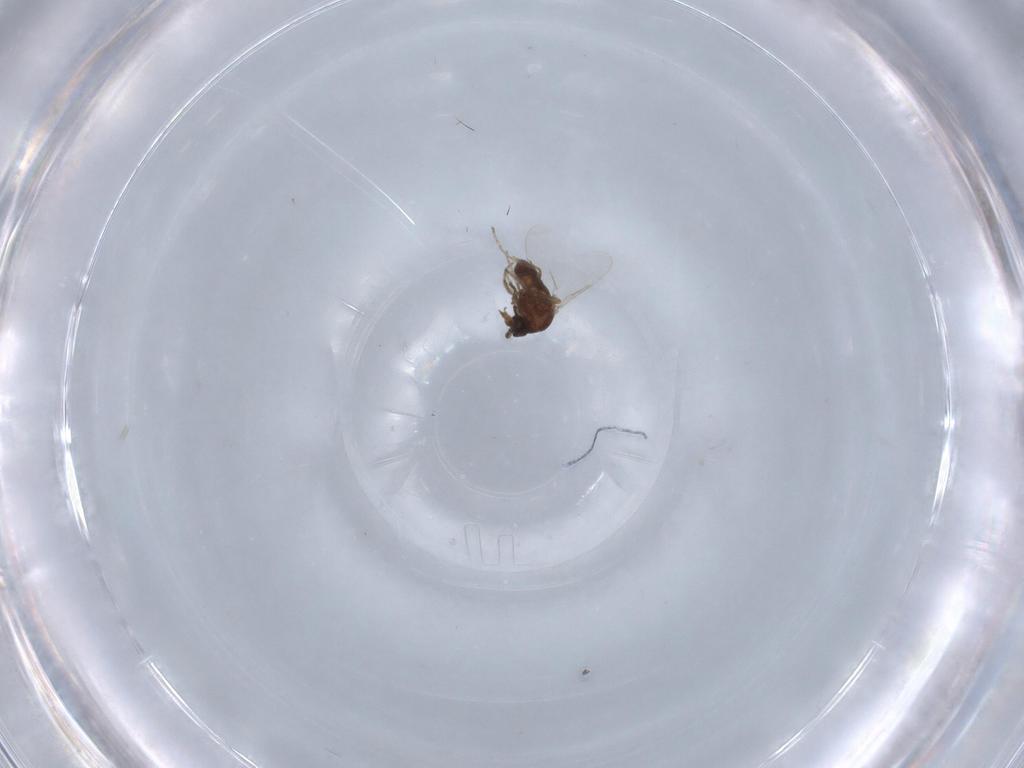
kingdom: Animalia
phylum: Arthropoda
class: Insecta
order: Diptera
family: Ceratopogonidae
